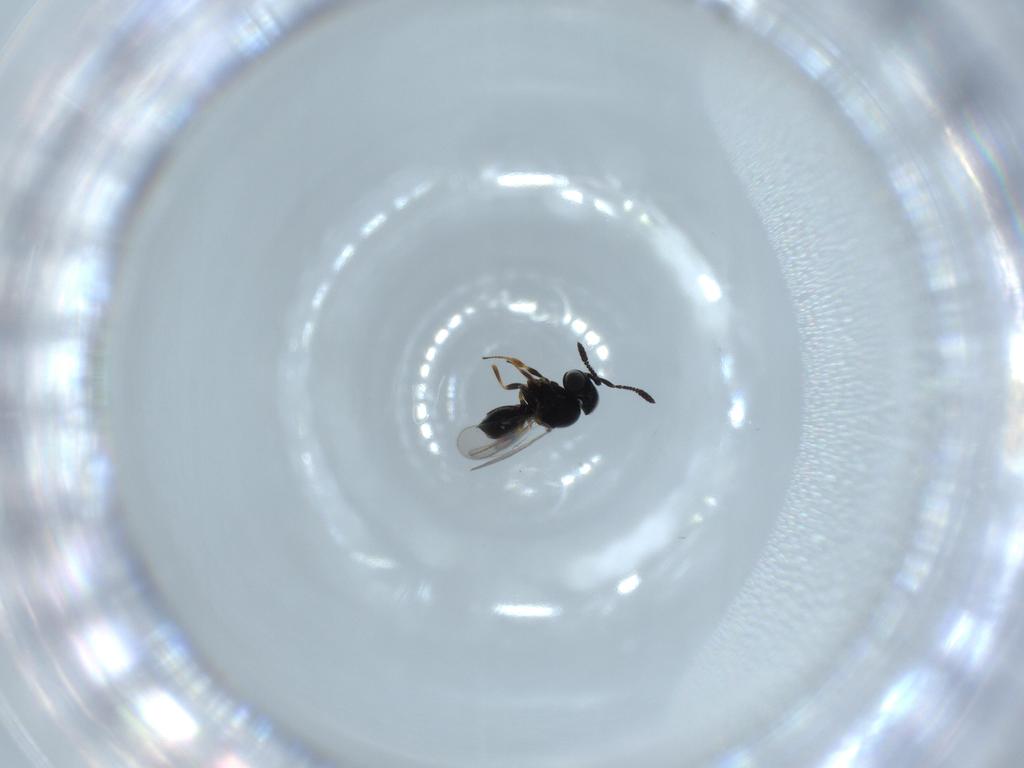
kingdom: Animalia
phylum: Arthropoda
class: Insecta
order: Hymenoptera
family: Scelionidae
